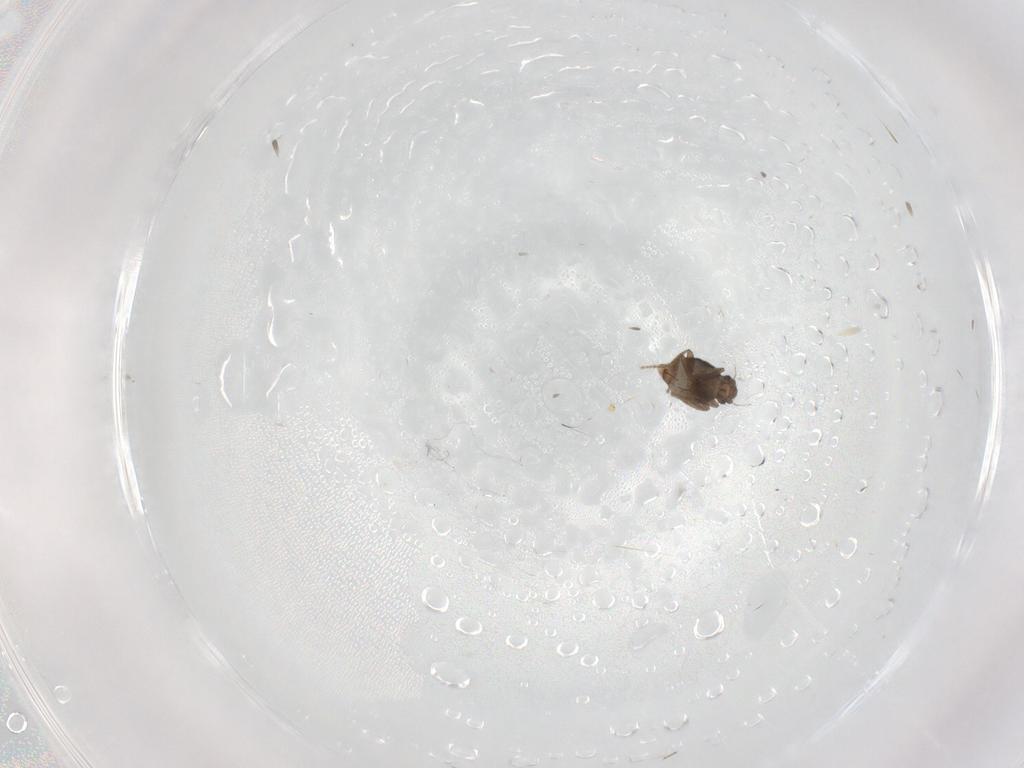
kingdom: Animalia
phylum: Arthropoda
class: Insecta
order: Diptera
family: Phoridae
